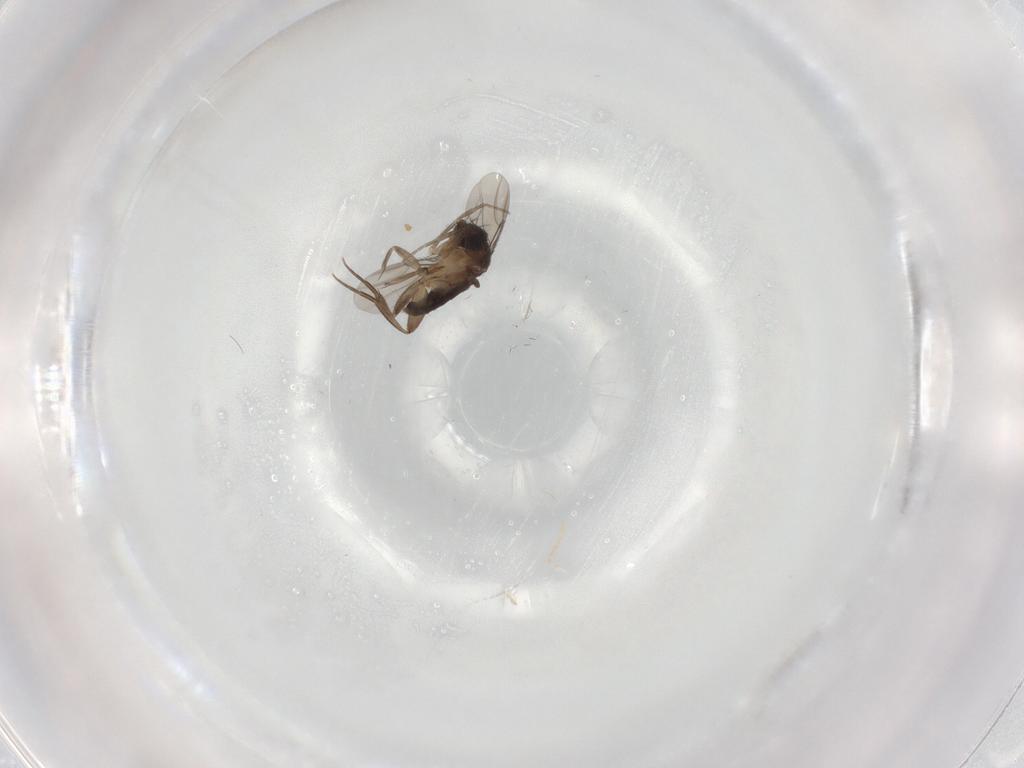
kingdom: Animalia
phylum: Arthropoda
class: Insecta
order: Diptera
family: Phoridae
